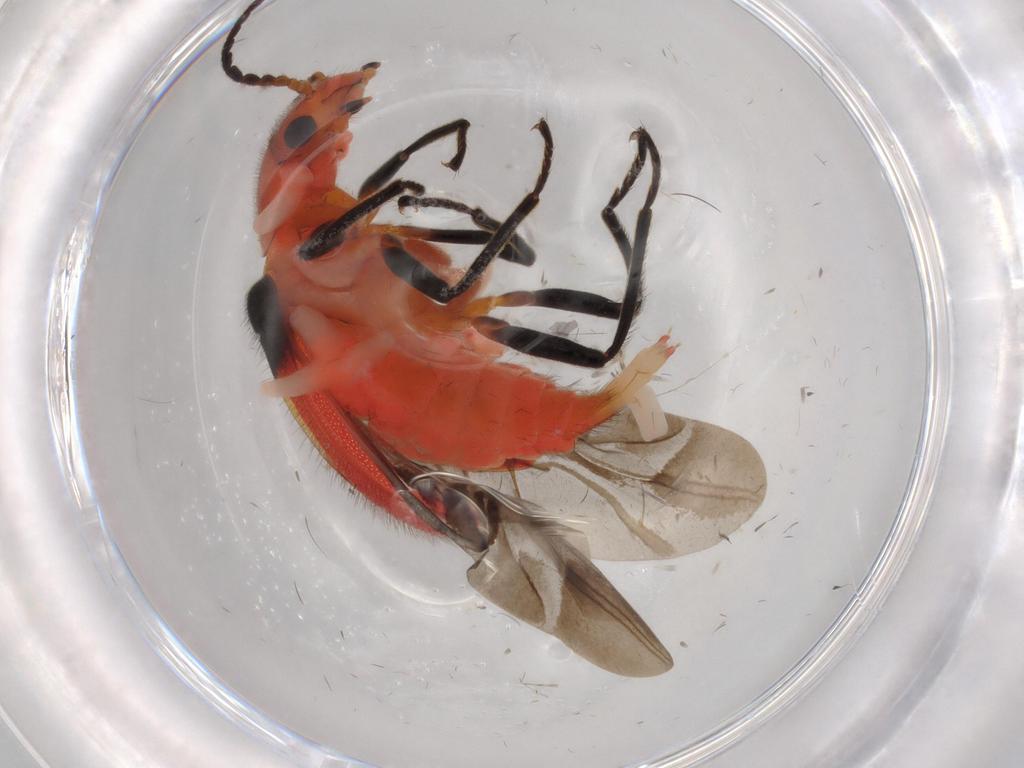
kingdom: Animalia
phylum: Arthropoda
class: Insecta
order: Coleoptera
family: Melyridae
